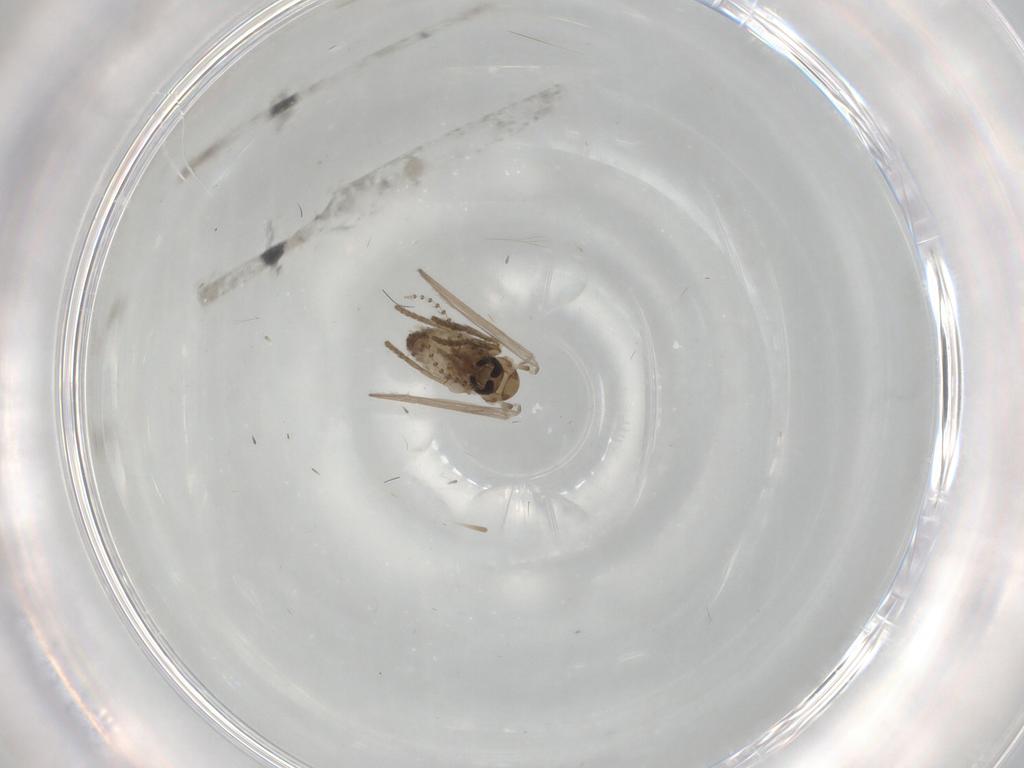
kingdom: Animalia
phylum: Arthropoda
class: Insecta
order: Diptera
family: Psychodidae
